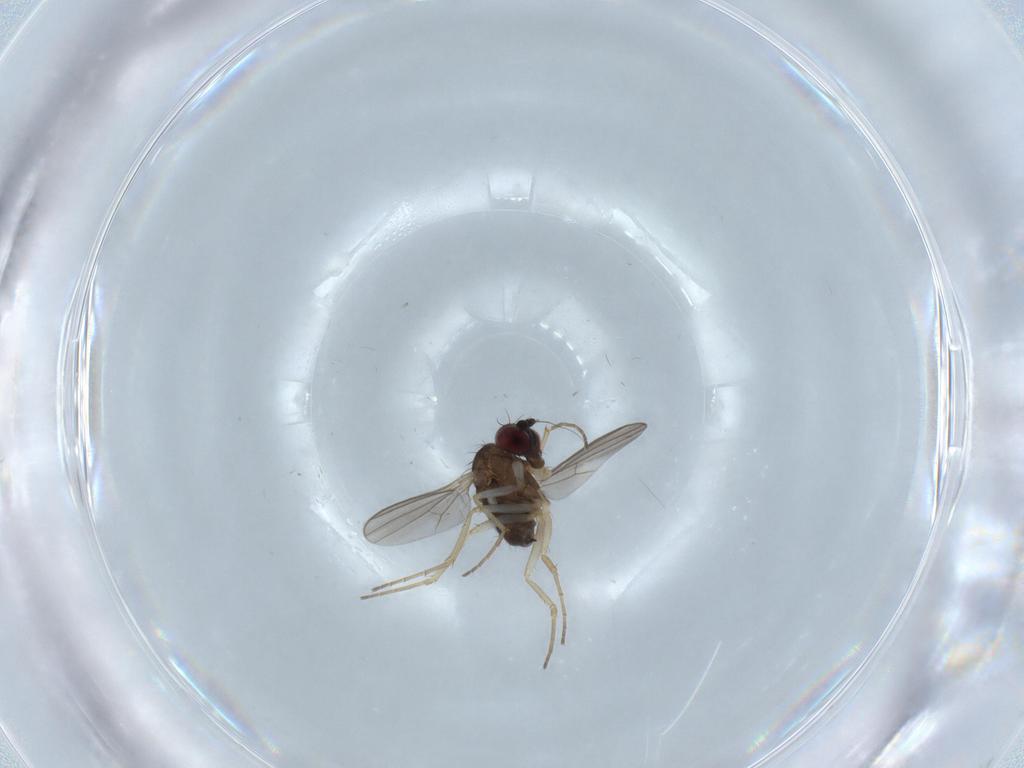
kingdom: Animalia
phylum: Arthropoda
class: Insecta
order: Diptera
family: Dolichopodidae
